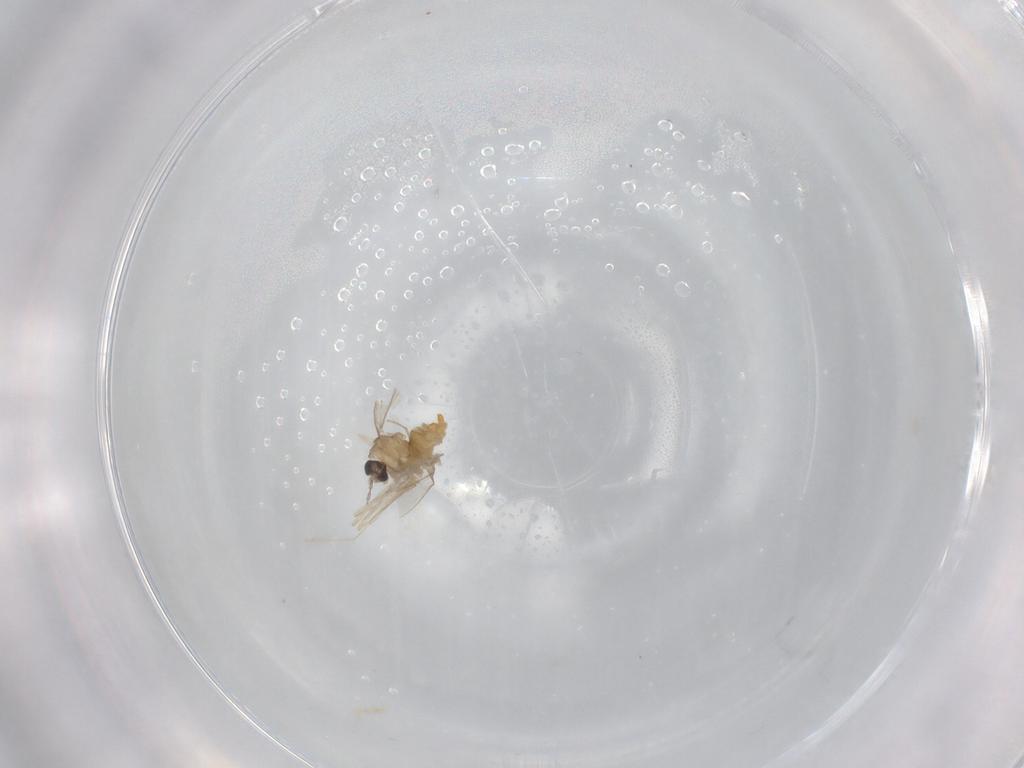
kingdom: Animalia
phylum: Arthropoda
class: Insecta
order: Diptera
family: Cecidomyiidae
